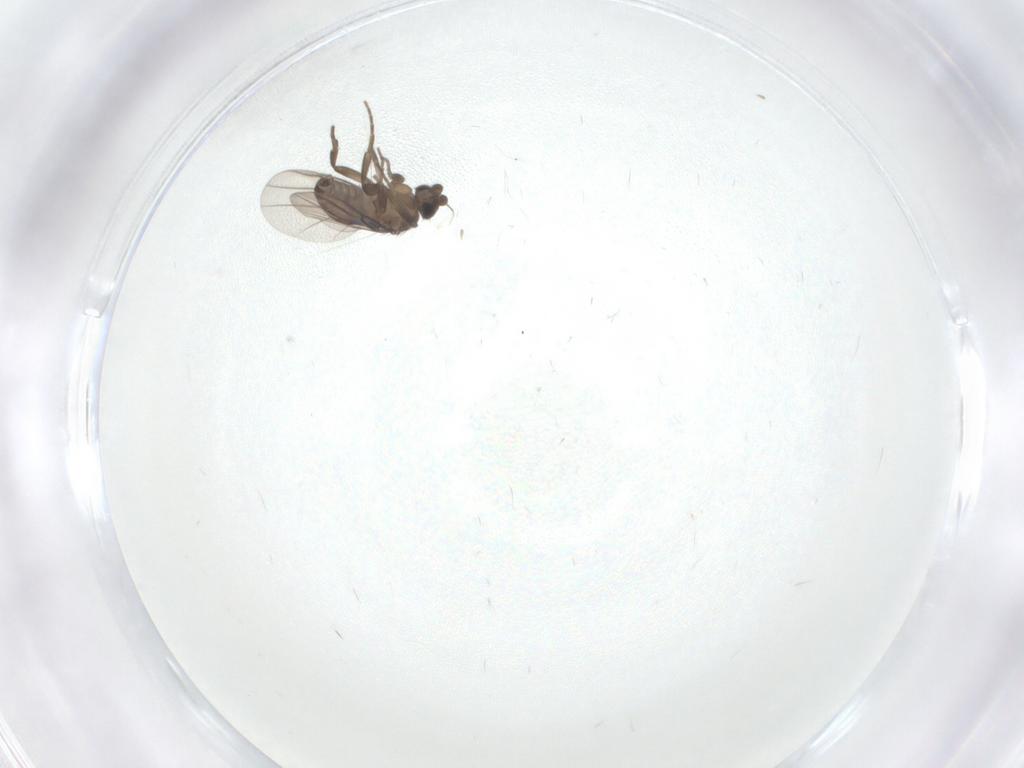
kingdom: Animalia
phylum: Arthropoda
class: Insecta
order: Diptera
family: Phoridae
